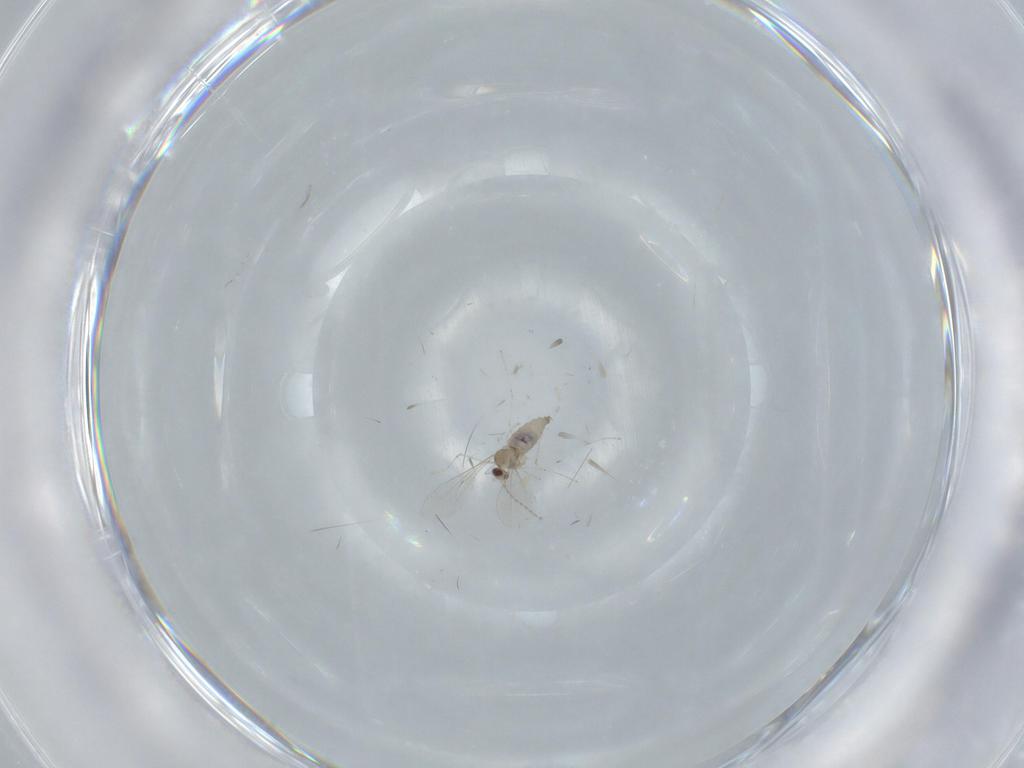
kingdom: Animalia
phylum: Arthropoda
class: Insecta
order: Diptera
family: Cecidomyiidae
